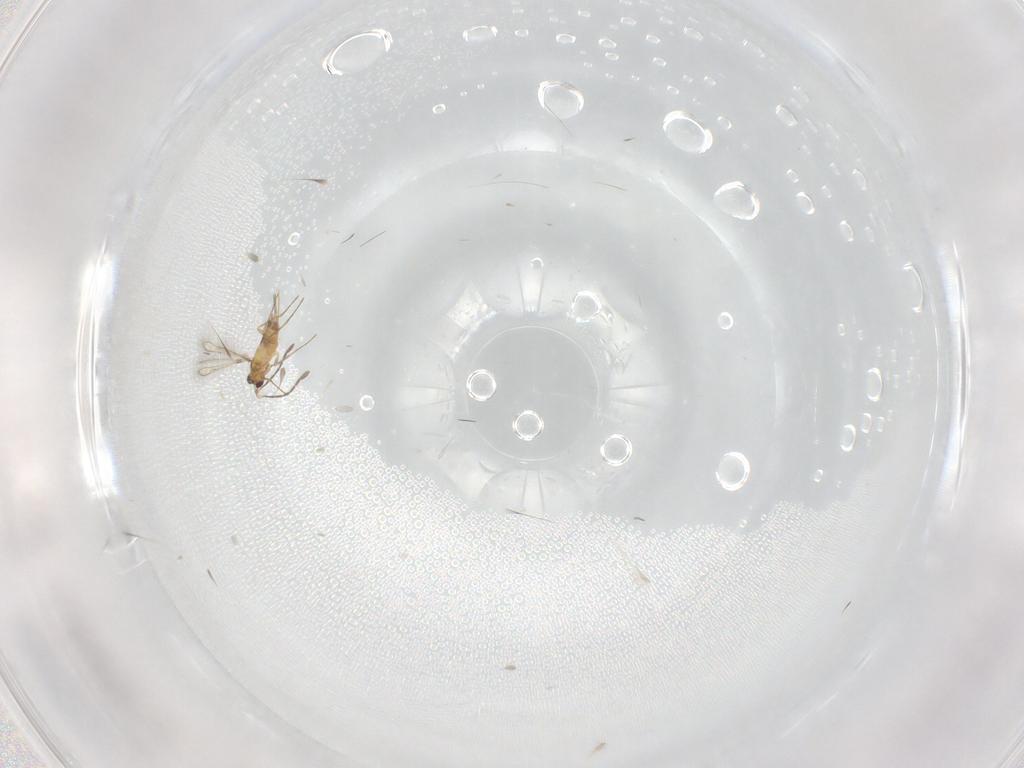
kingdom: Animalia
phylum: Arthropoda
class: Insecta
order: Hymenoptera
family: Mymaridae
